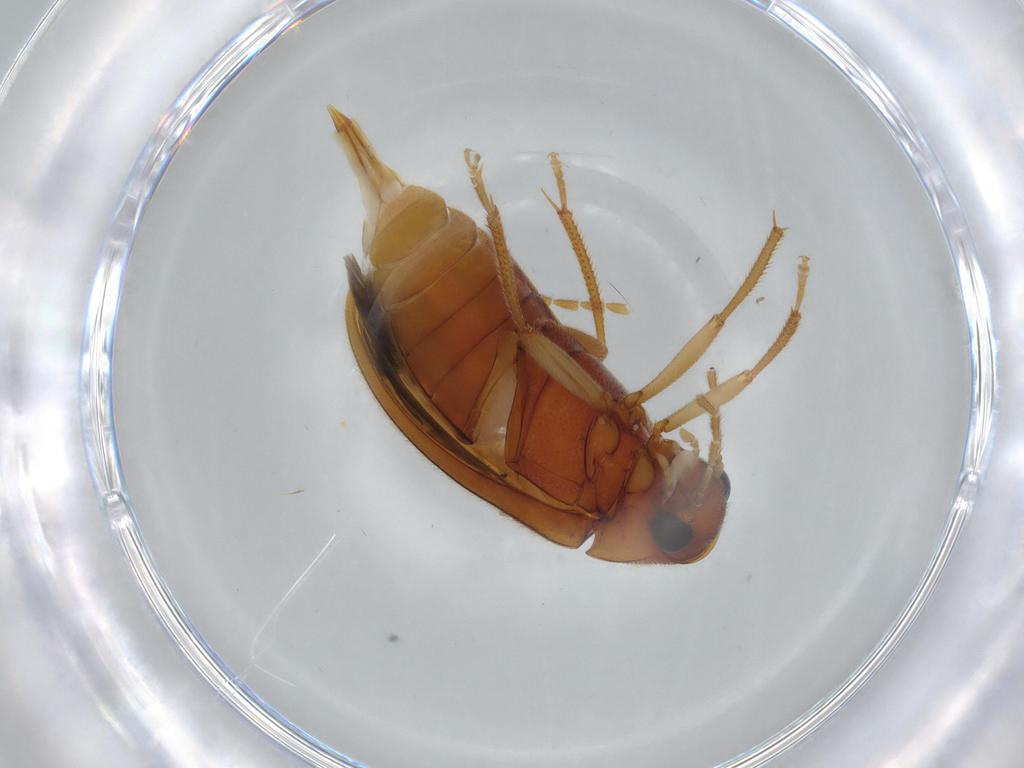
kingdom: Animalia
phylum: Arthropoda
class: Insecta
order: Coleoptera
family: Ptilodactylidae
